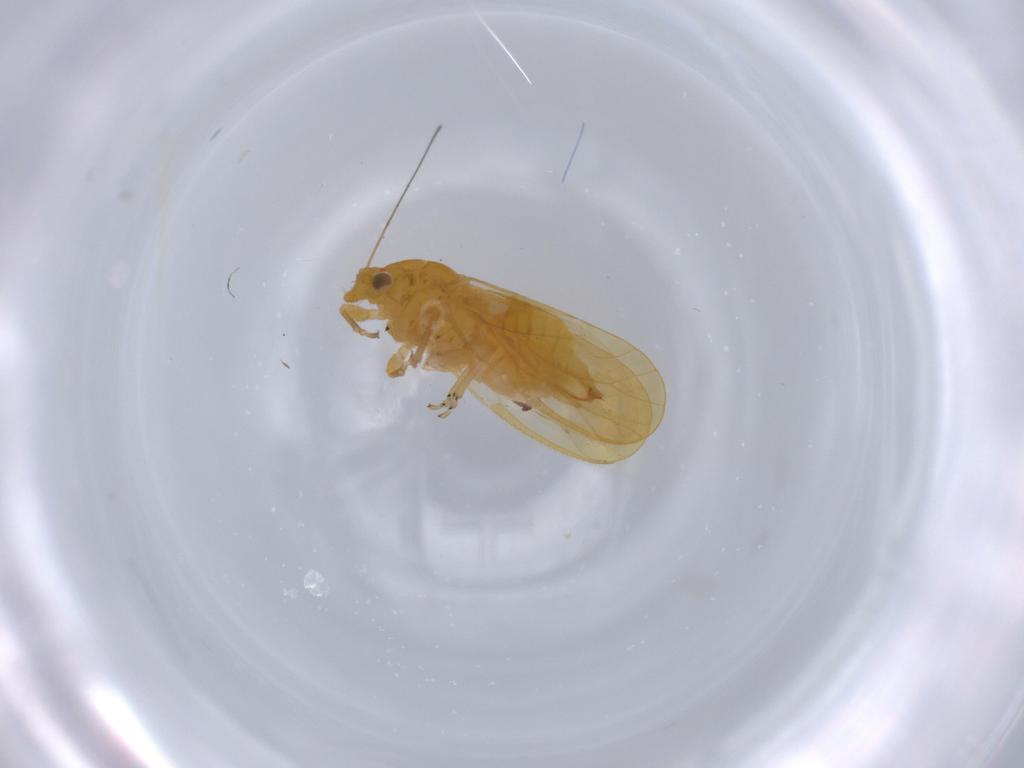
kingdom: Animalia
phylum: Arthropoda
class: Insecta
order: Hemiptera
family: Psyllidae
